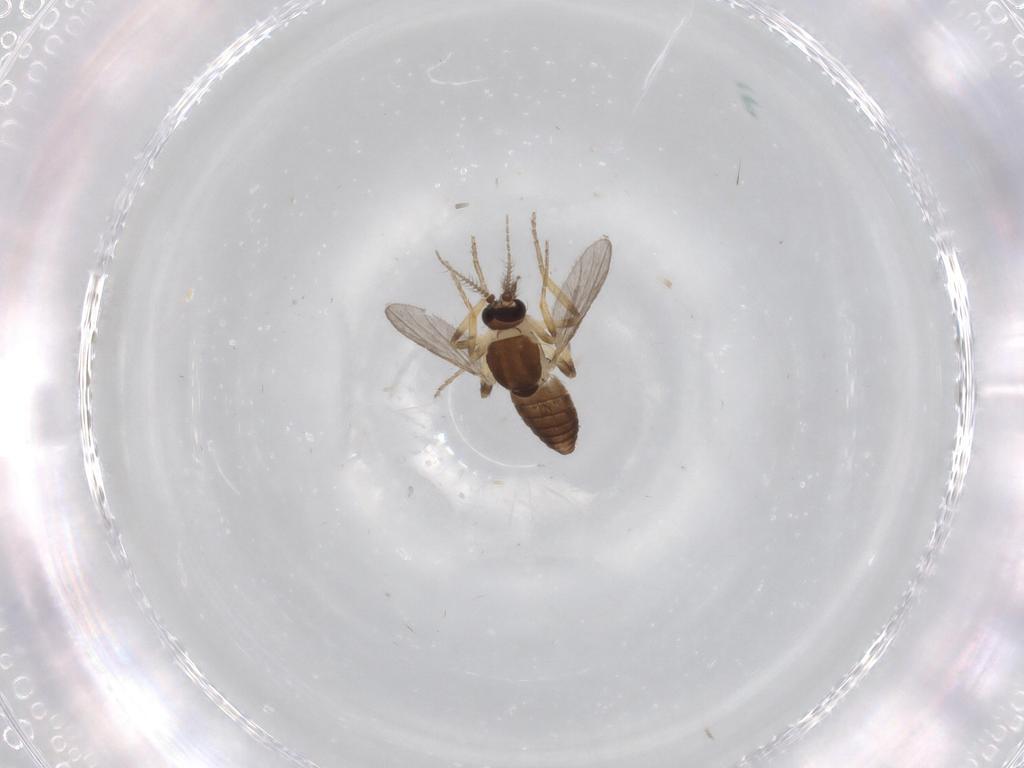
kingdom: Animalia
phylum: Arthropoda
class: Insecta
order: Diptera
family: Ceratopogonidae
